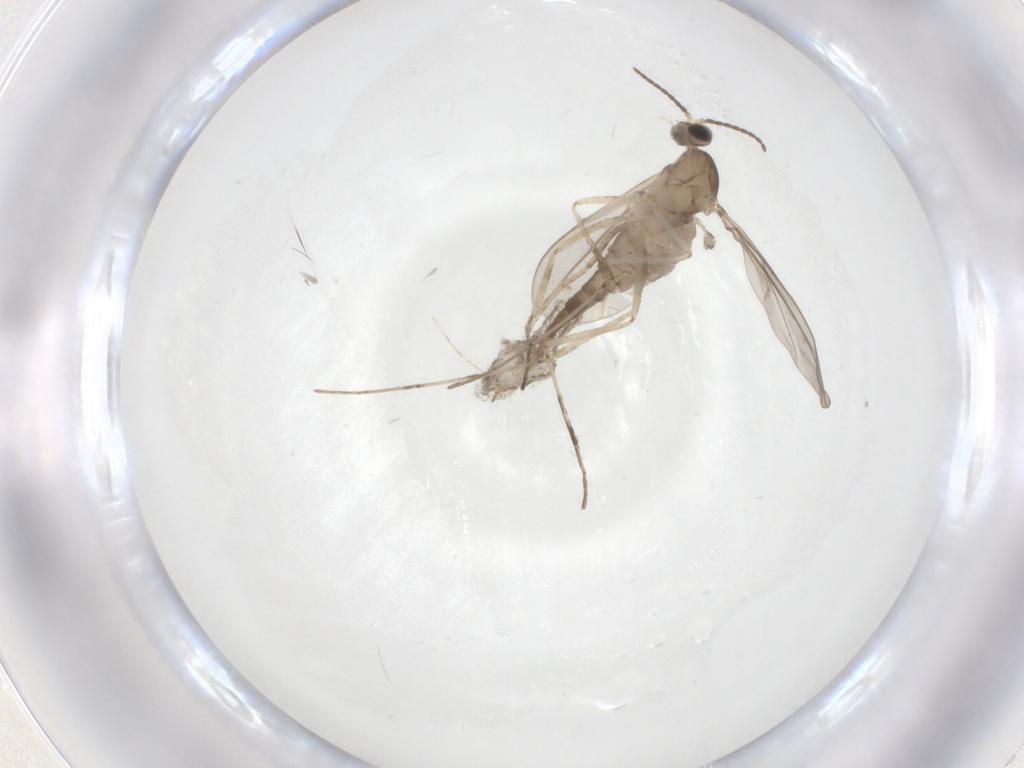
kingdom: Animalia
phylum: Arthropoda
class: Insecta
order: Diptera
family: Cecidomyiidae
